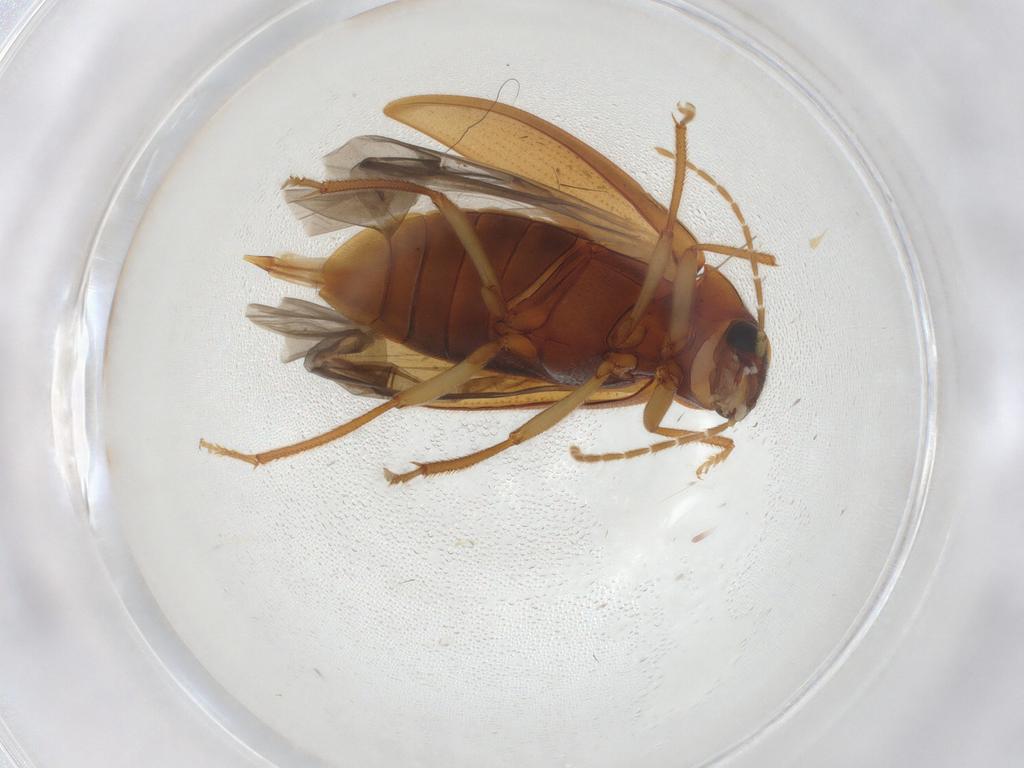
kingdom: Animalia
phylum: Arthropoda
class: Insecta
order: Coleoptera
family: Ptilodactylidae
